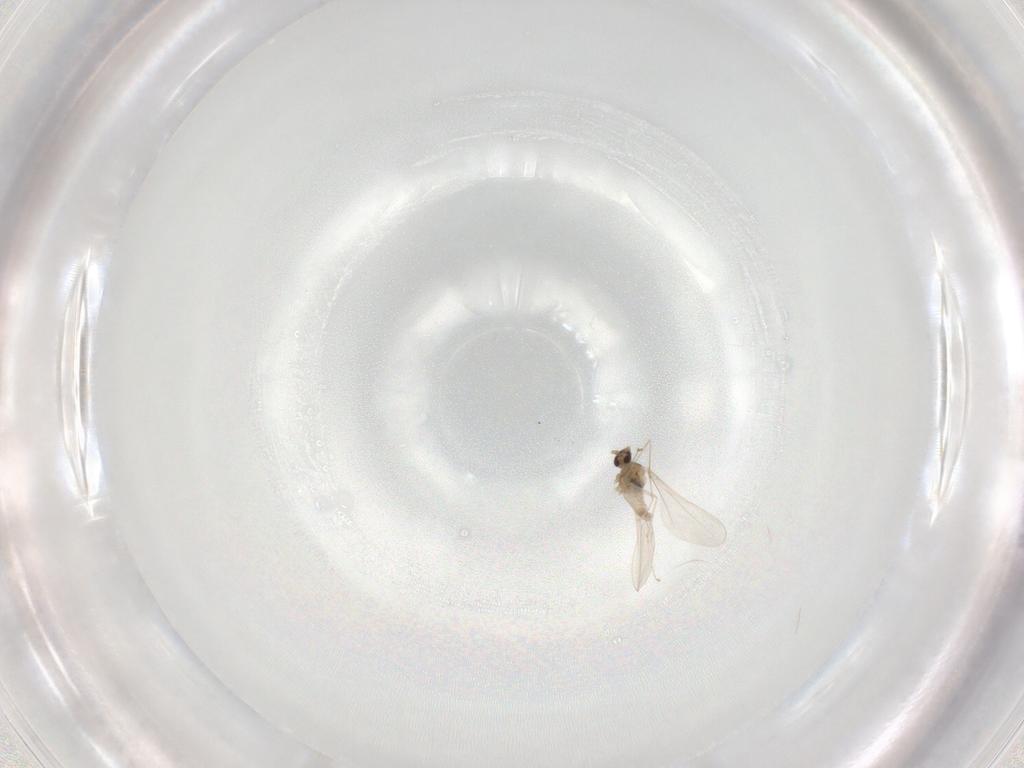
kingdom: Animalia
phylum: Arthropoda
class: Insecta
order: Diptera
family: Cecidomyiidae
